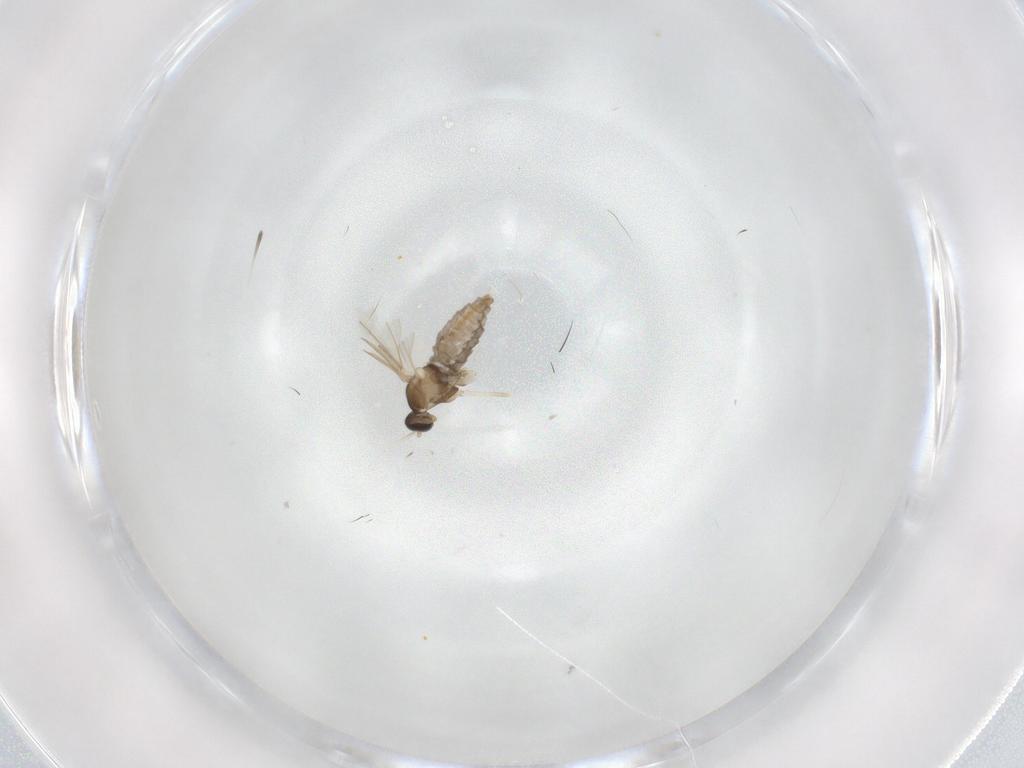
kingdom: Animalia
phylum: Arthropoda
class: Insecta
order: Diptera
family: Cecidomyiidae
